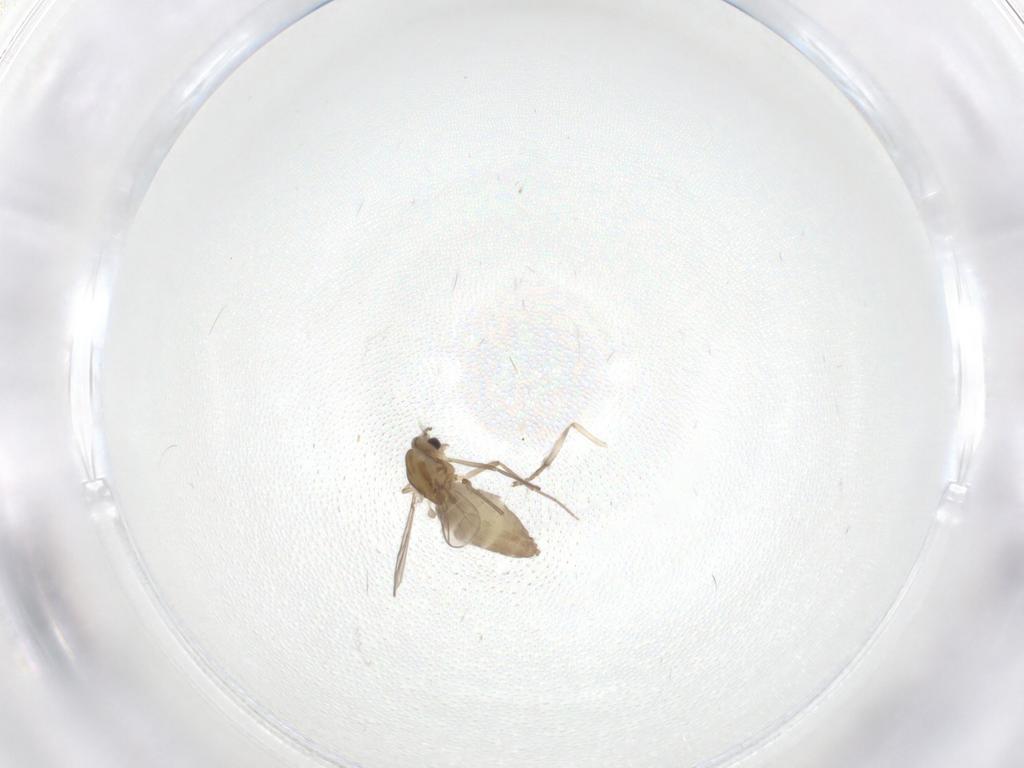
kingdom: Animalia
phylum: Arthropoda
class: Insecta
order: Diptera
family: Chironomidae
